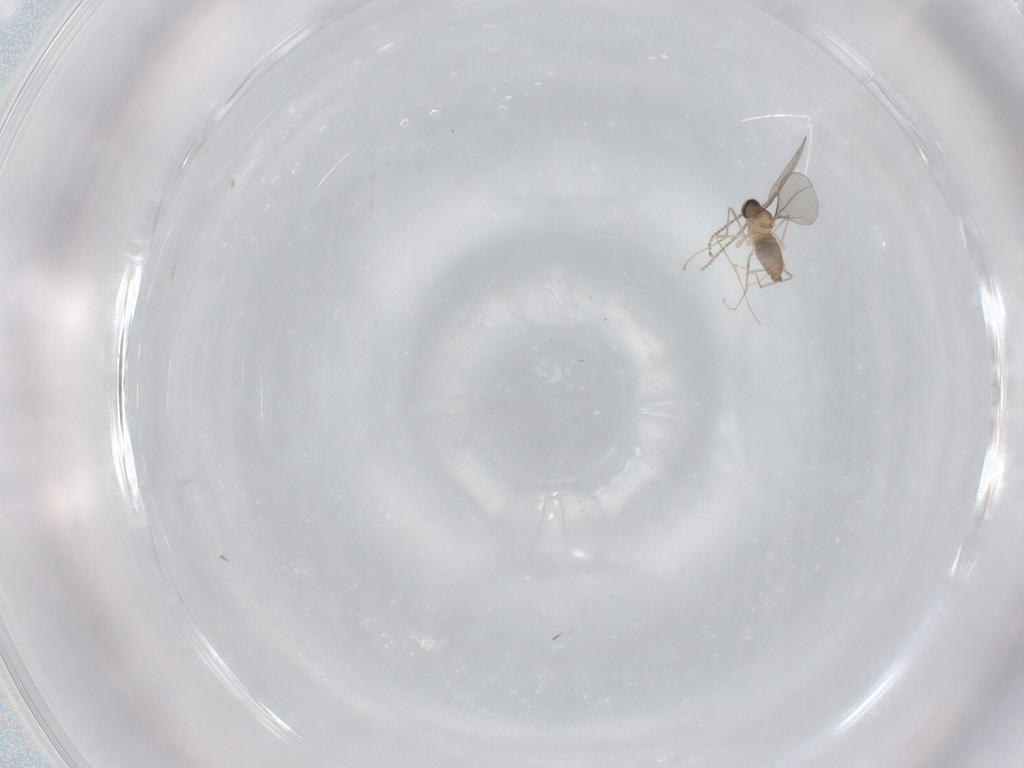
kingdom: Animalia
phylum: Arthropoda
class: Insecta
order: Diptera
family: Cecidomyiidae
